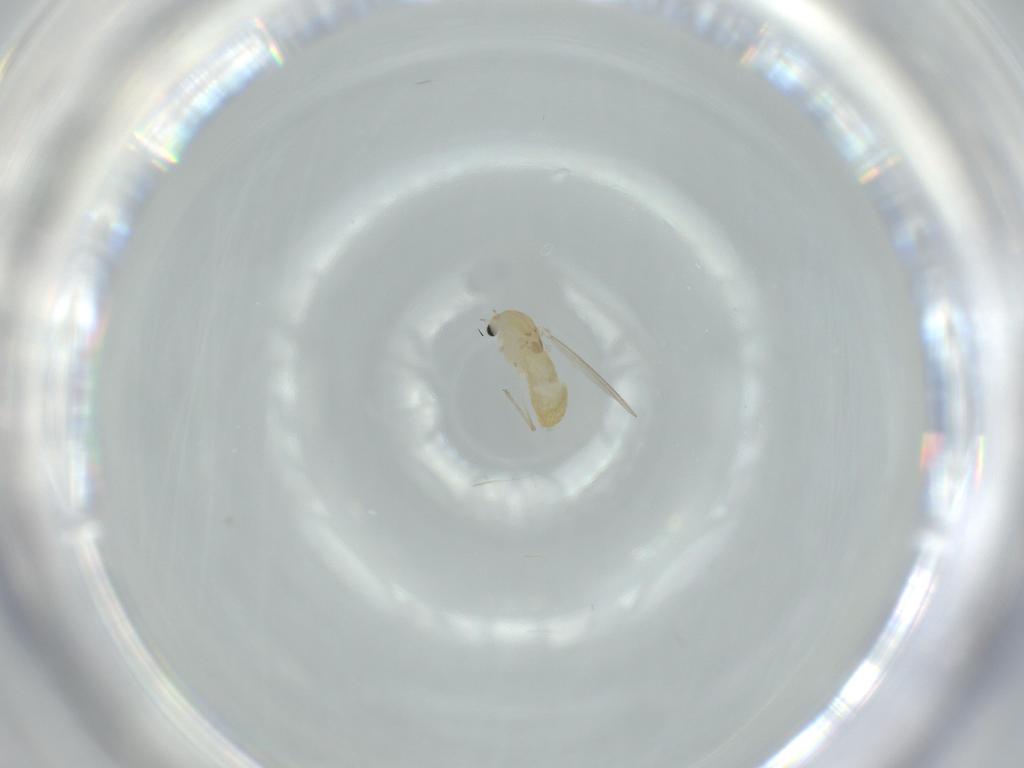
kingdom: Animalia
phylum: Arthropoda
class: Insecta
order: Diptera
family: Chironomidae
